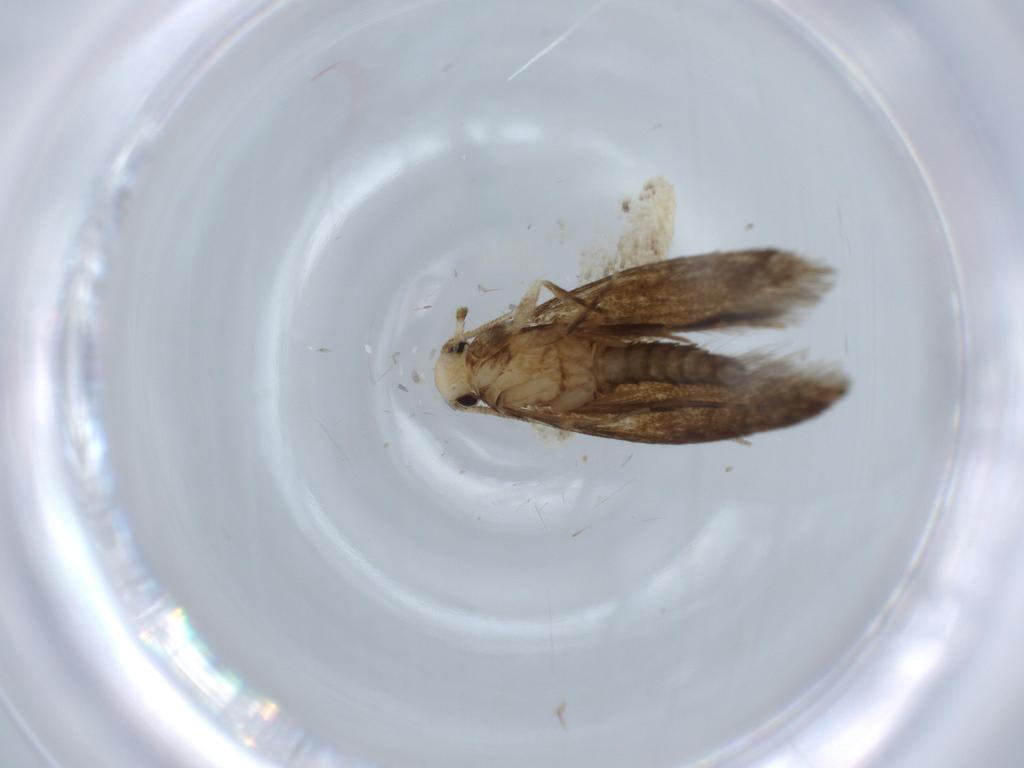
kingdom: Animalia
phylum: Arthropoda
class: Insecta
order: Lepidoptera
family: Tineidae
